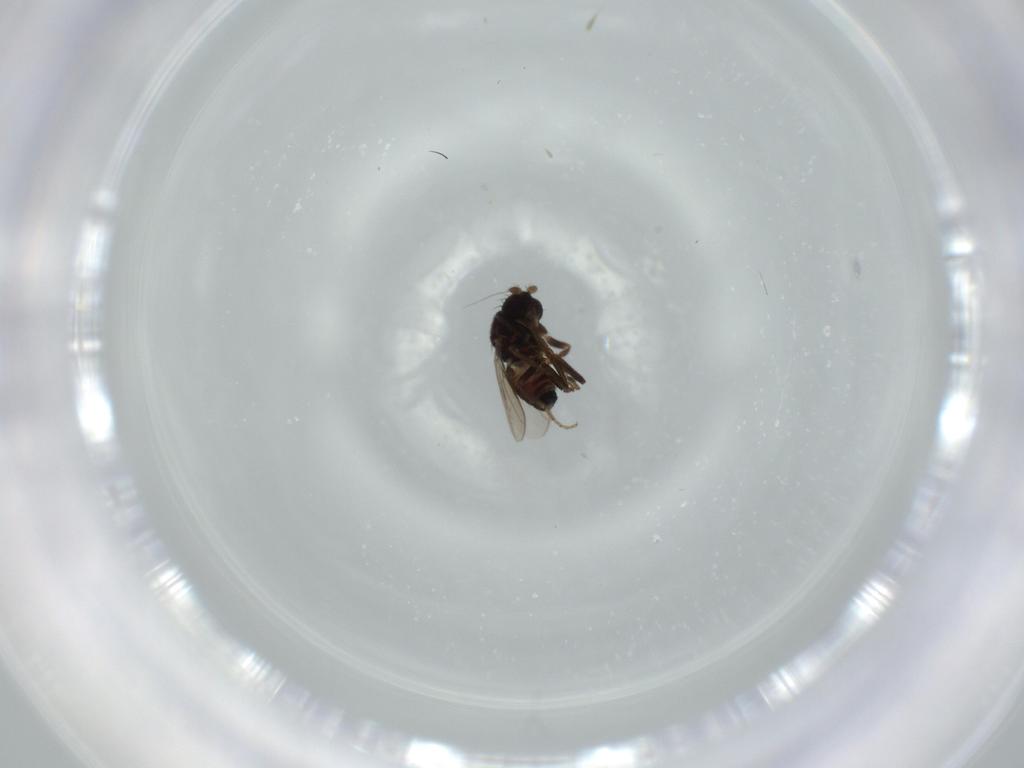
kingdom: Animalia
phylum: Arthropoda
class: Insecta
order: Diptera
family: Sphaeroceridae
